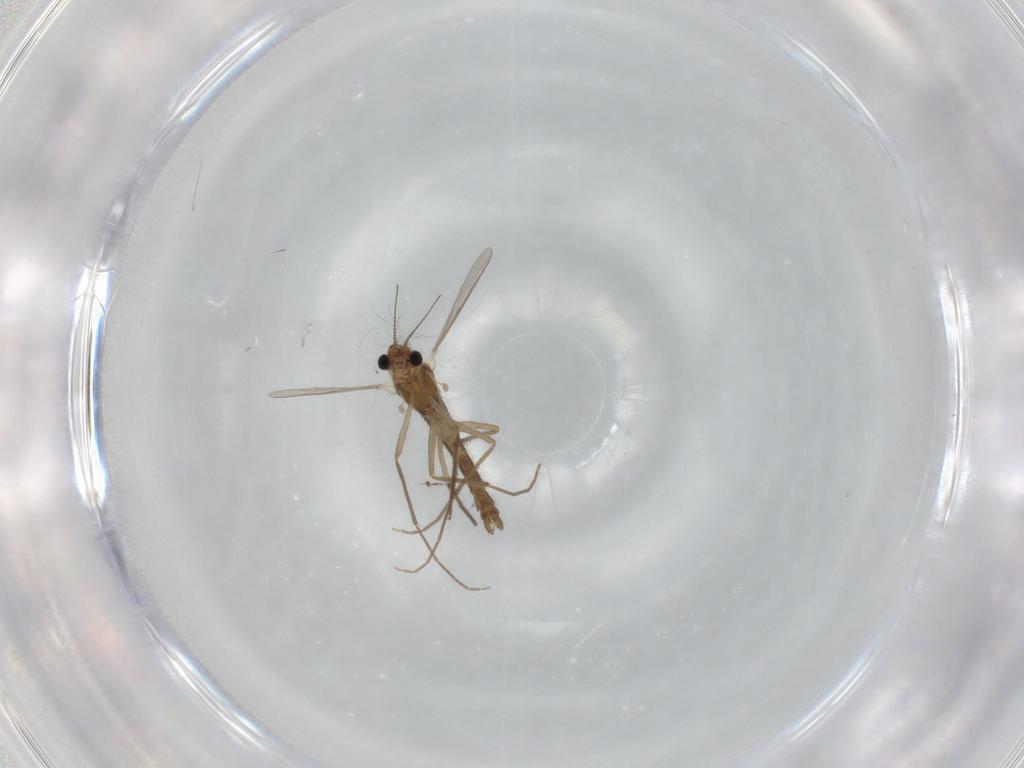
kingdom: Animalia
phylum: Arthropoda
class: Insecta
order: Diptera
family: Chironomidae
